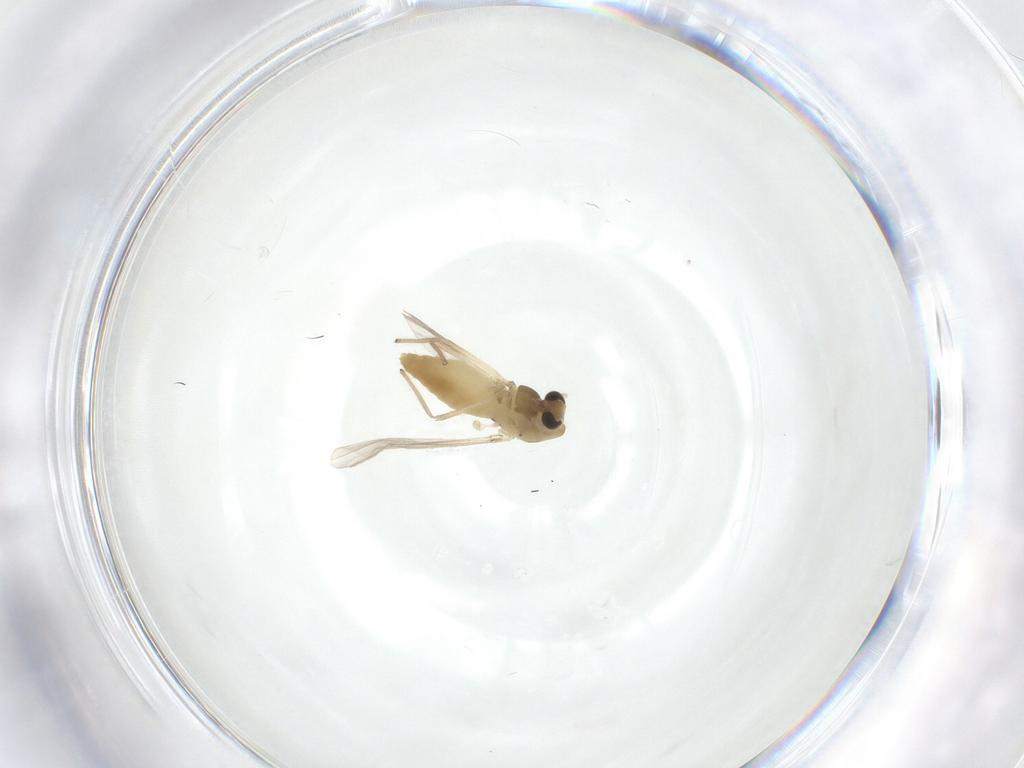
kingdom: Animalia
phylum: Arthropoda
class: Insecta
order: Diptera
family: Chironomidae
